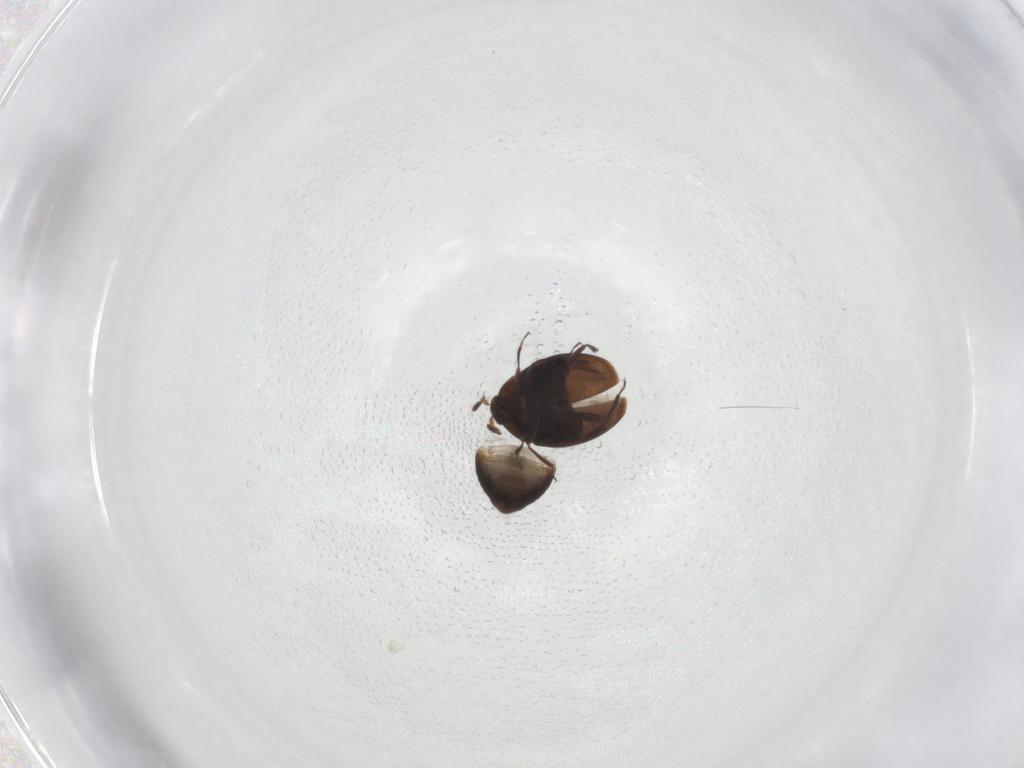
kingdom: Animalia
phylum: Arthropoda
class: Insecta
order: Coleoptera
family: Corylophidae
